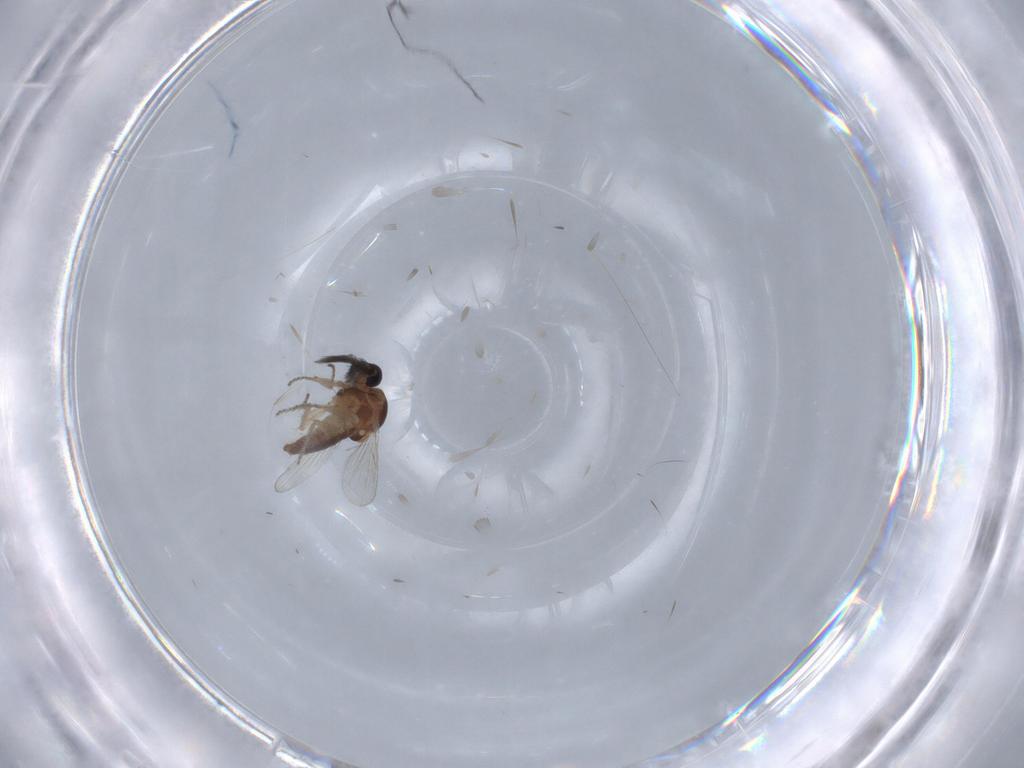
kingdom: Animalia
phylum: Arthropoda
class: Insecta
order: Diptera
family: Ceratopogonidae
